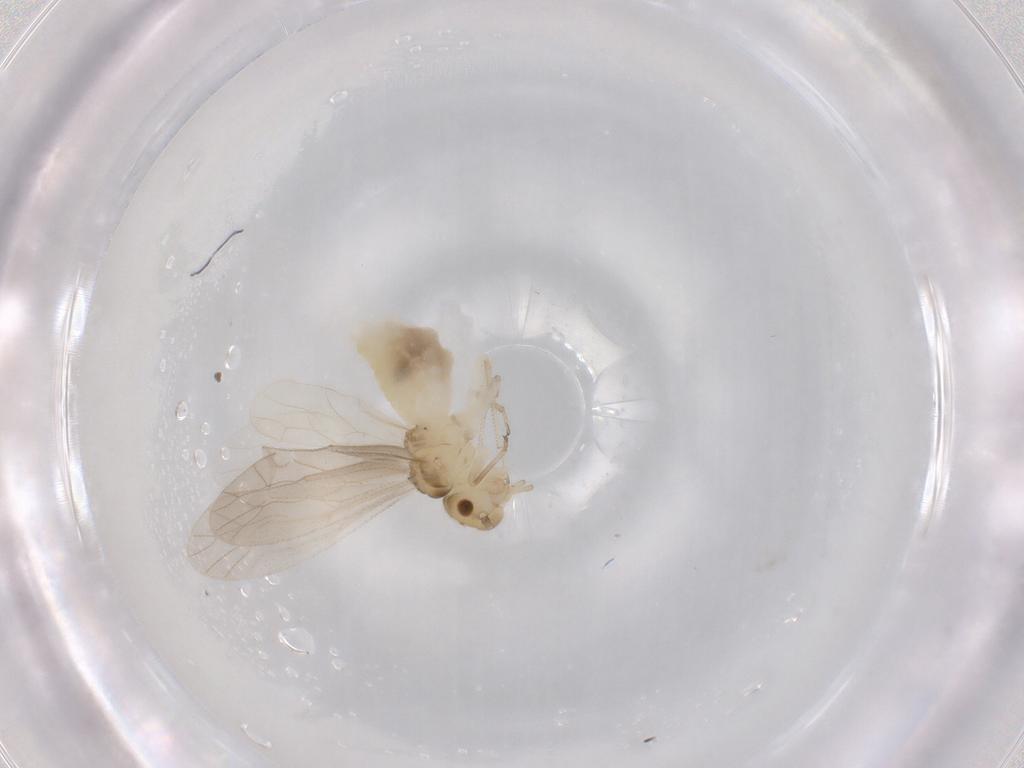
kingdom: Animalia
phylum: Arthropoda
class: Insecta
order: Psocodea
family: Caeciliusidae
